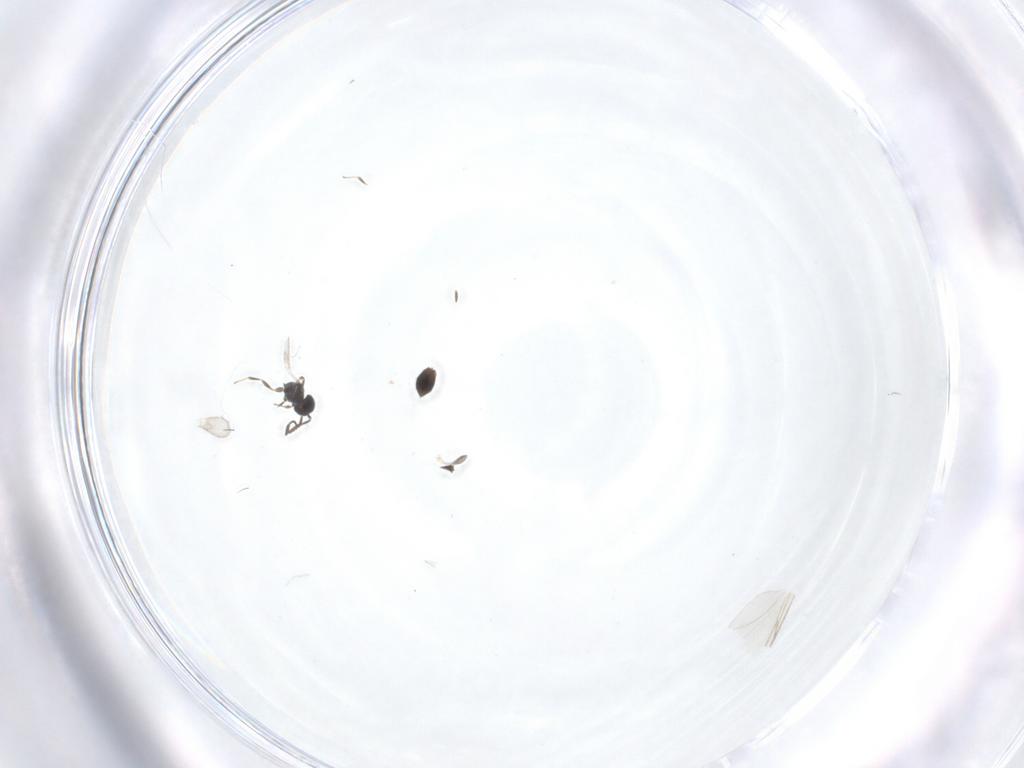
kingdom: Animalia
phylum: Arthropoda
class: Insecta
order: Hymenoptera
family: Scelionidae
